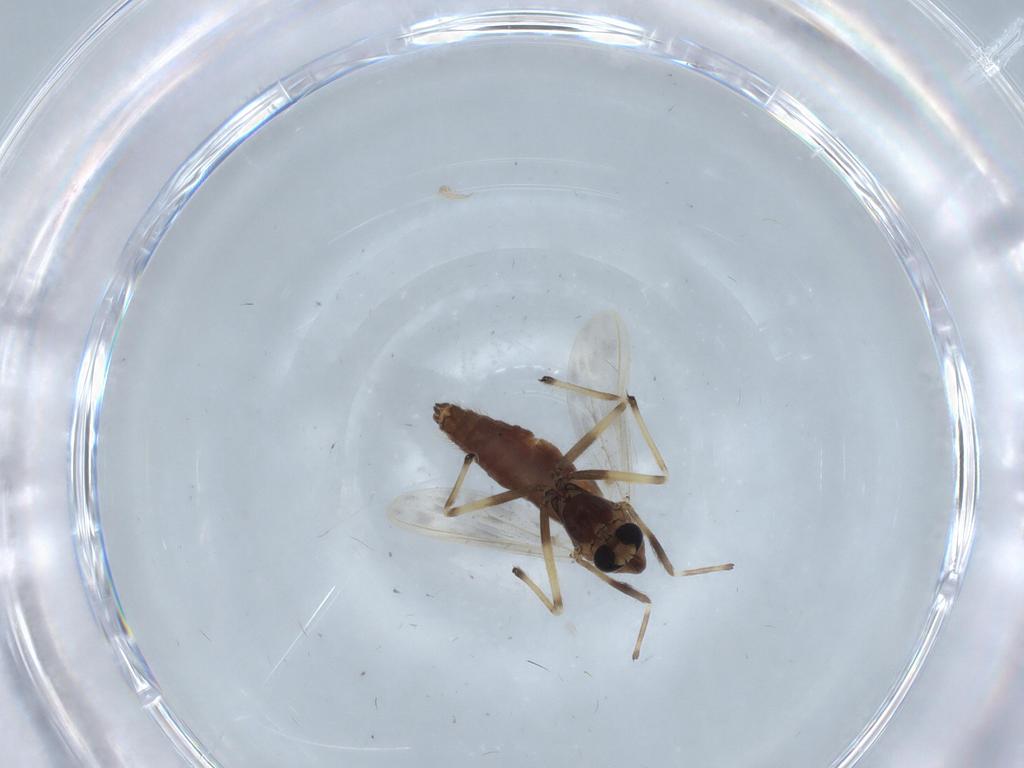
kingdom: Animalia
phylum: Arthropoda
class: Insecta
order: Diptera
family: Chironomidae
